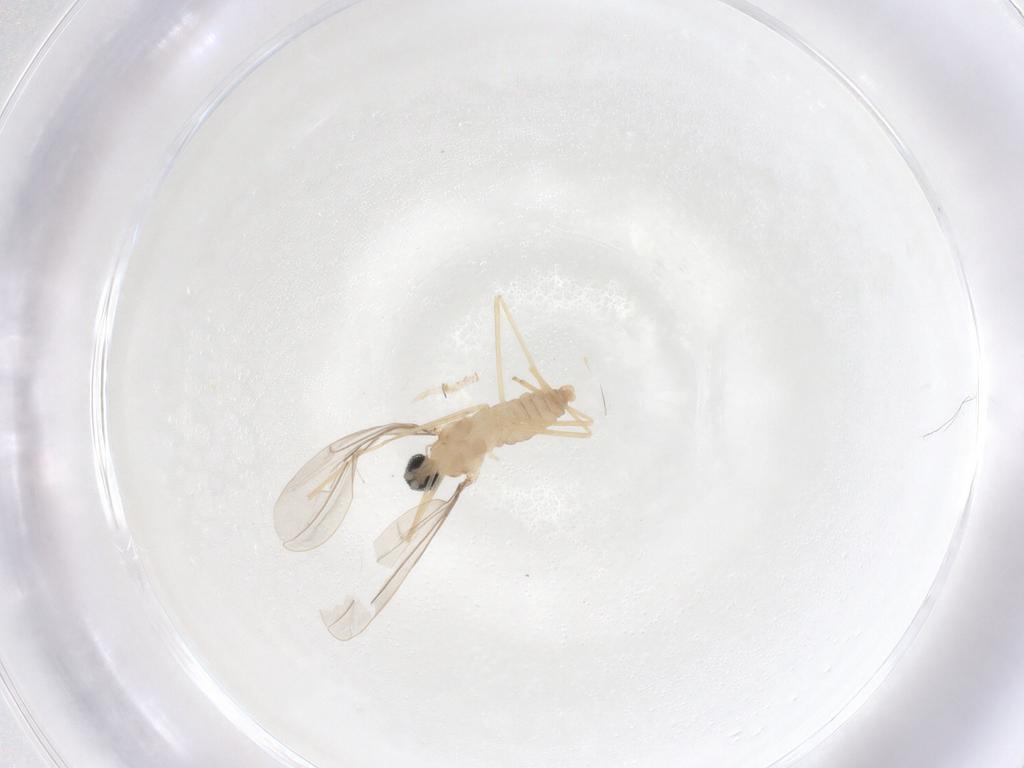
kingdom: Animalia
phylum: Arthropoda
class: Insecta
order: Diptera
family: Cecidomyiidae
